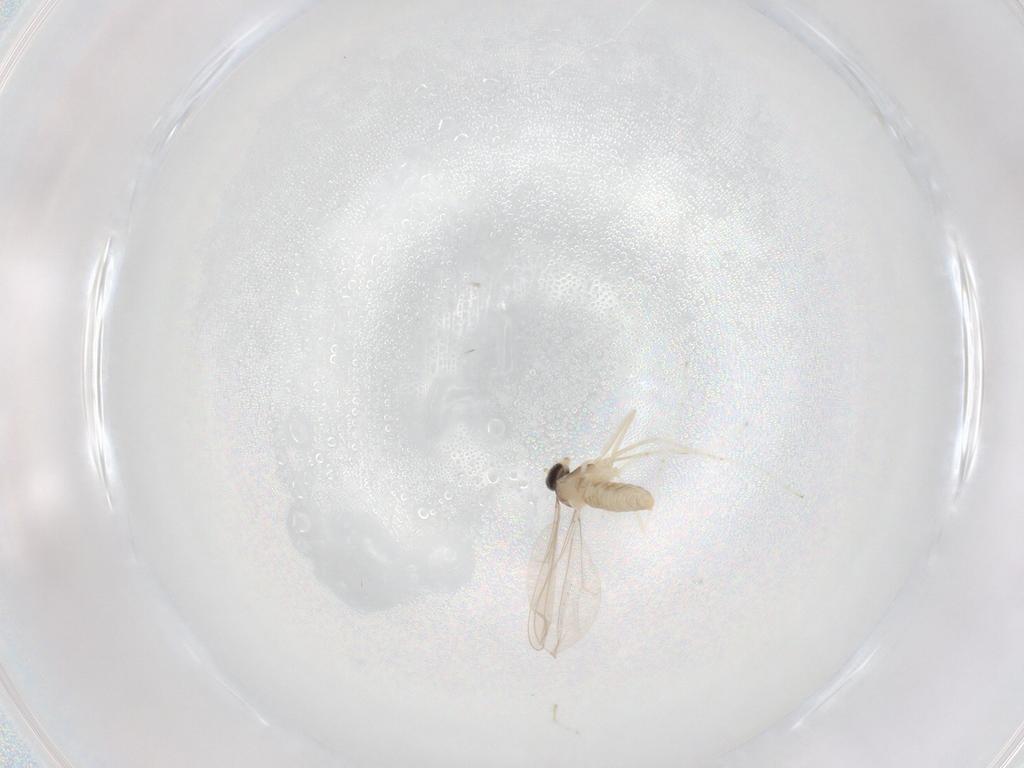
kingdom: Animalia
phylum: Arthropoda
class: Insecta
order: Diptera
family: Cecidomyiidae
